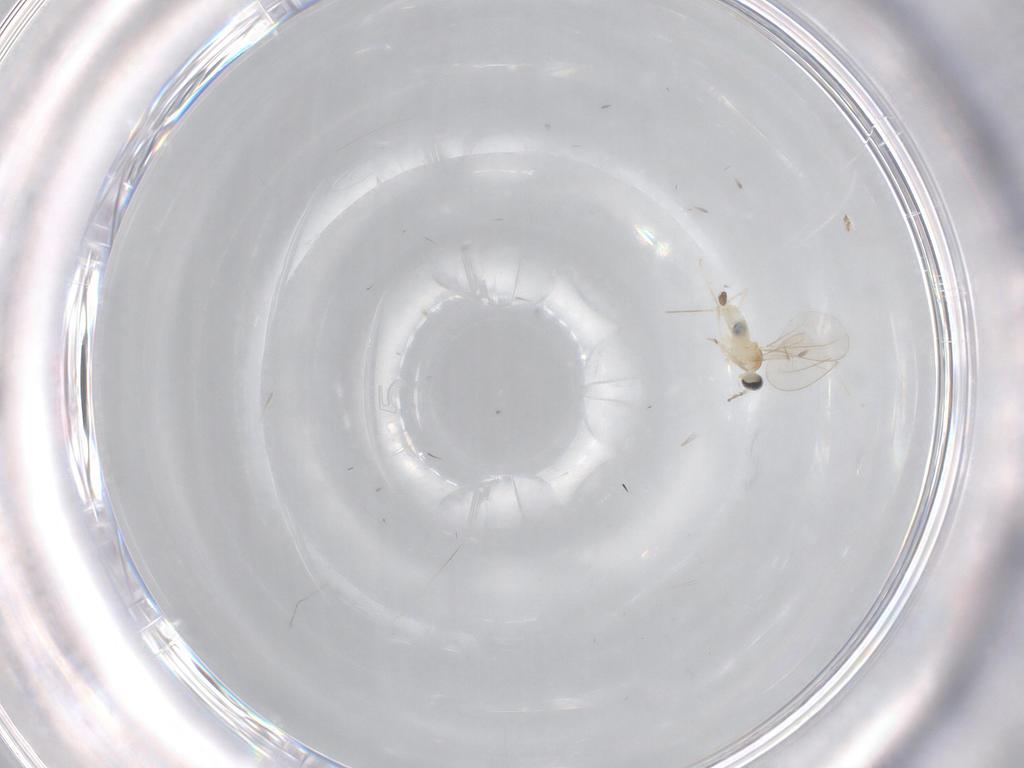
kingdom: Animalia
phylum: Arthropoda
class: Insecta
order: Diptera
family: Cecidomyiidae
